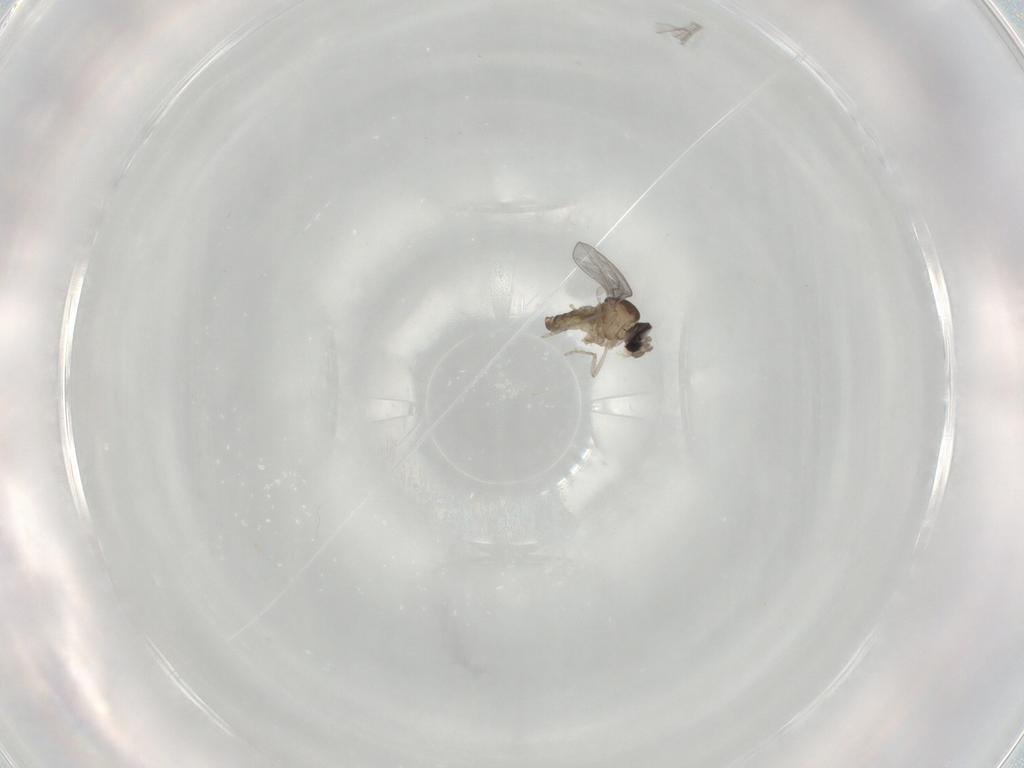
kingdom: Animalia
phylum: Arthropoda
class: Insecta
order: Diptera
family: Cecidomyiidae
